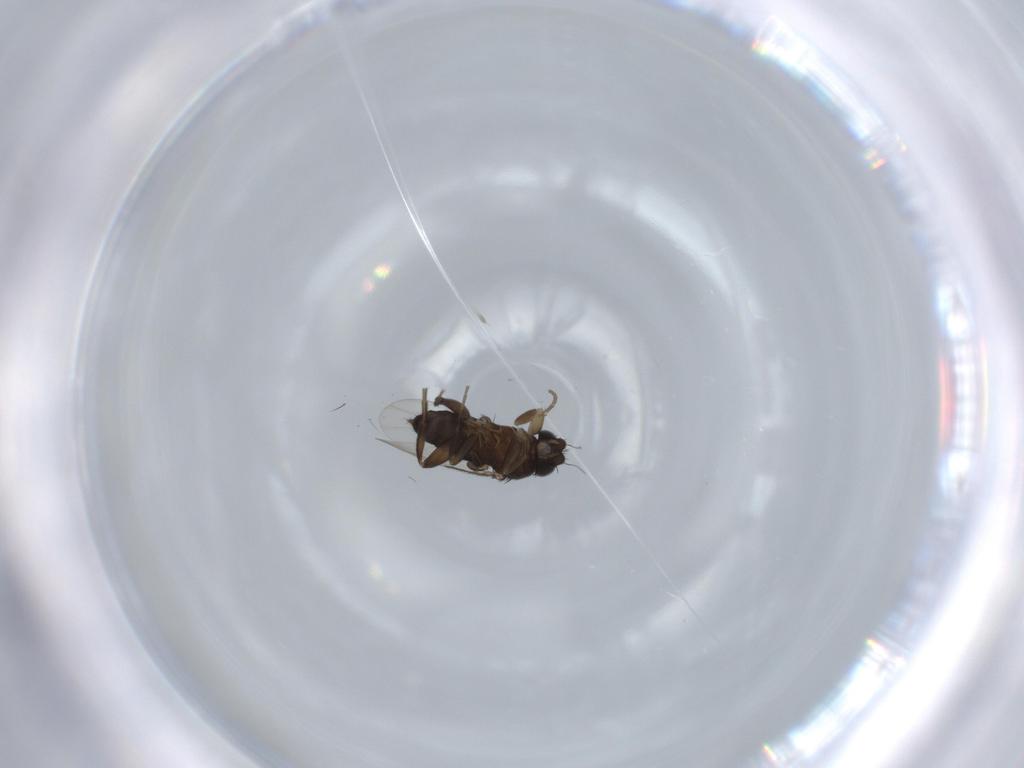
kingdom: Animalia
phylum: Arthropoda
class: Insecta
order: Diptera
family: Phoridae
